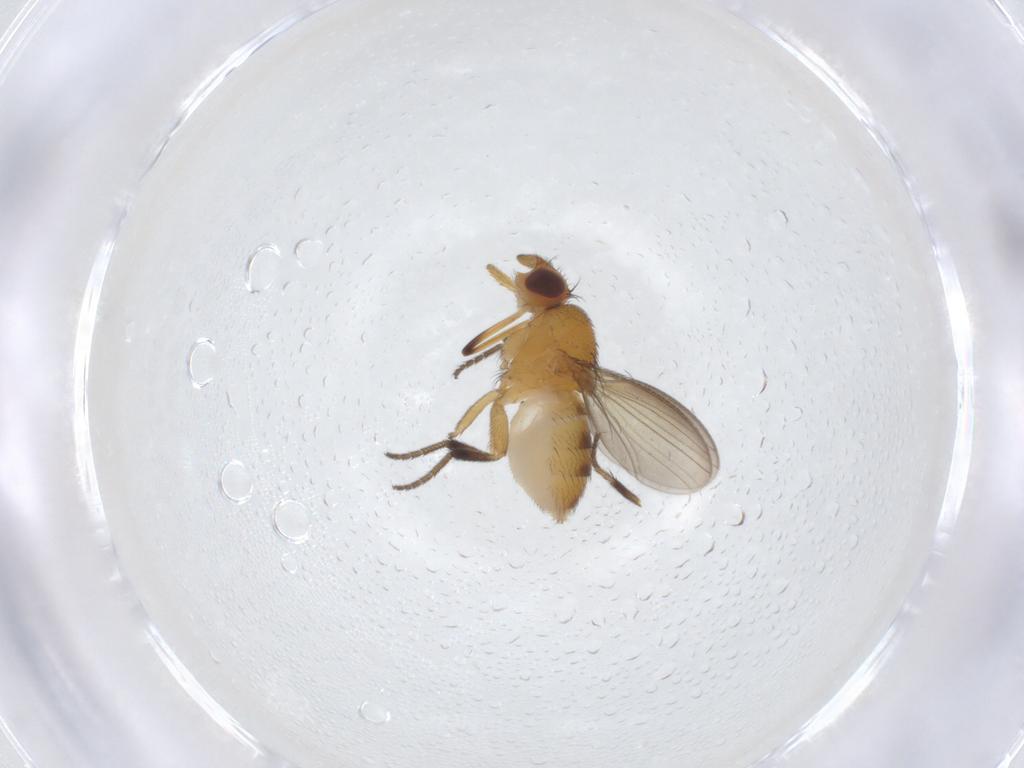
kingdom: Animalia
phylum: Arthropoda
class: Insecta
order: Diptera
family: Milichiidae
